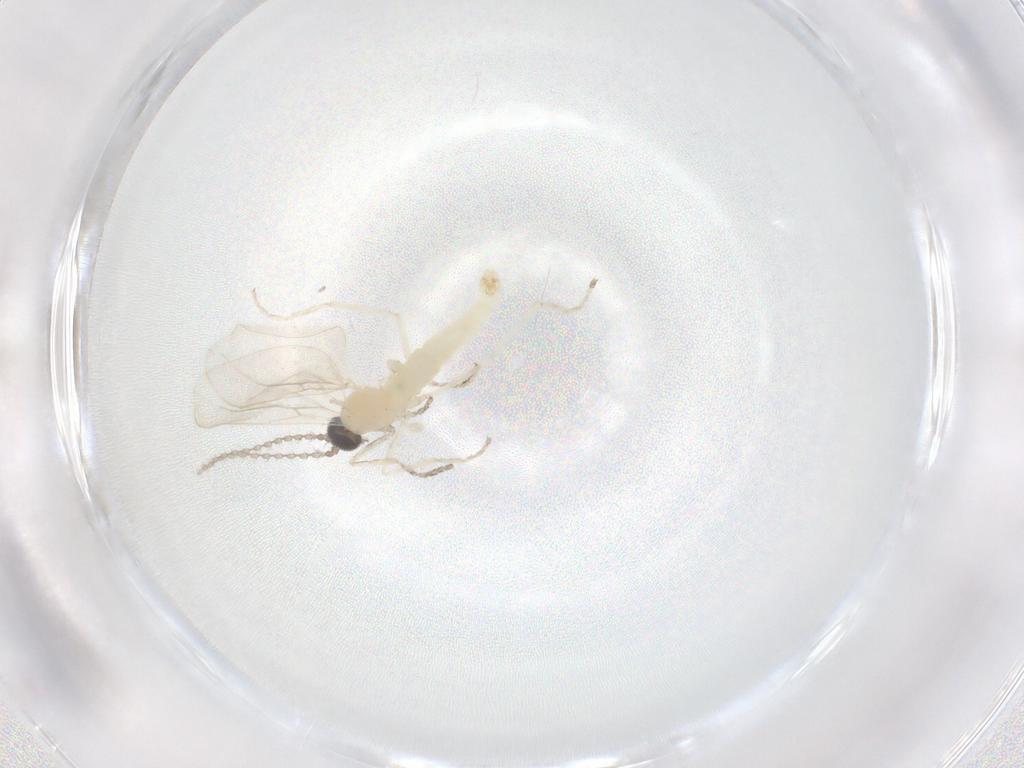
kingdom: Animalia
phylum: Arthropoda
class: Insecta
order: Diptera
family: Cecidomyiidae
